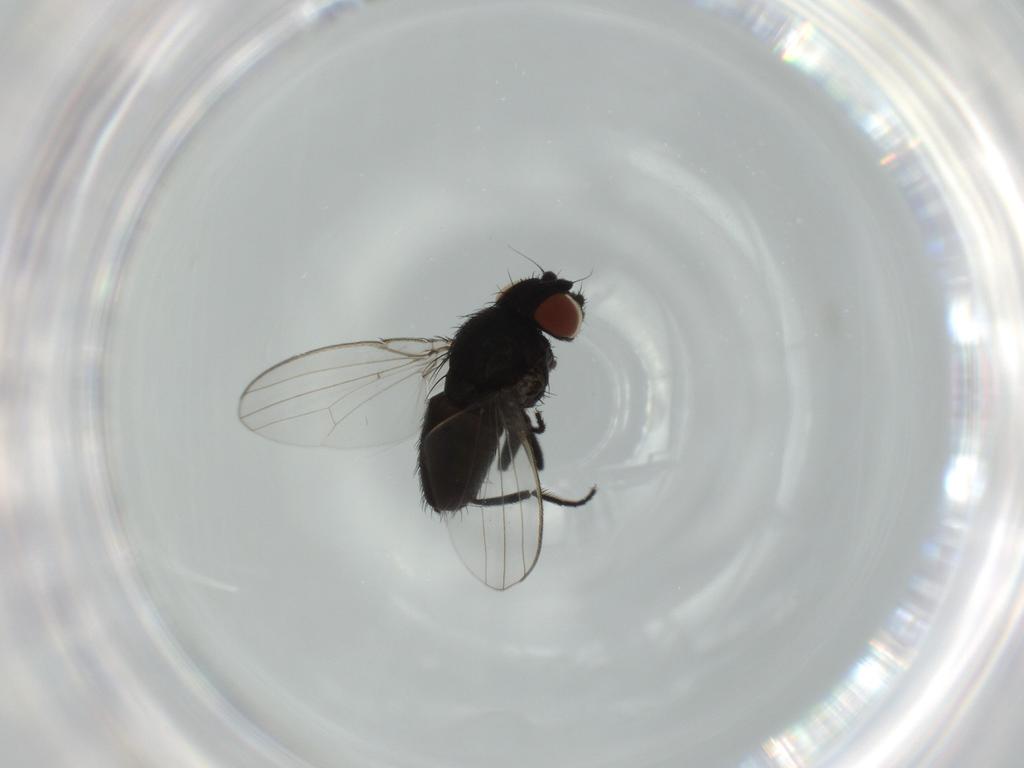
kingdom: Animalia
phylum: Arthropoda
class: Insecta
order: Diptera
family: Milichiidae
